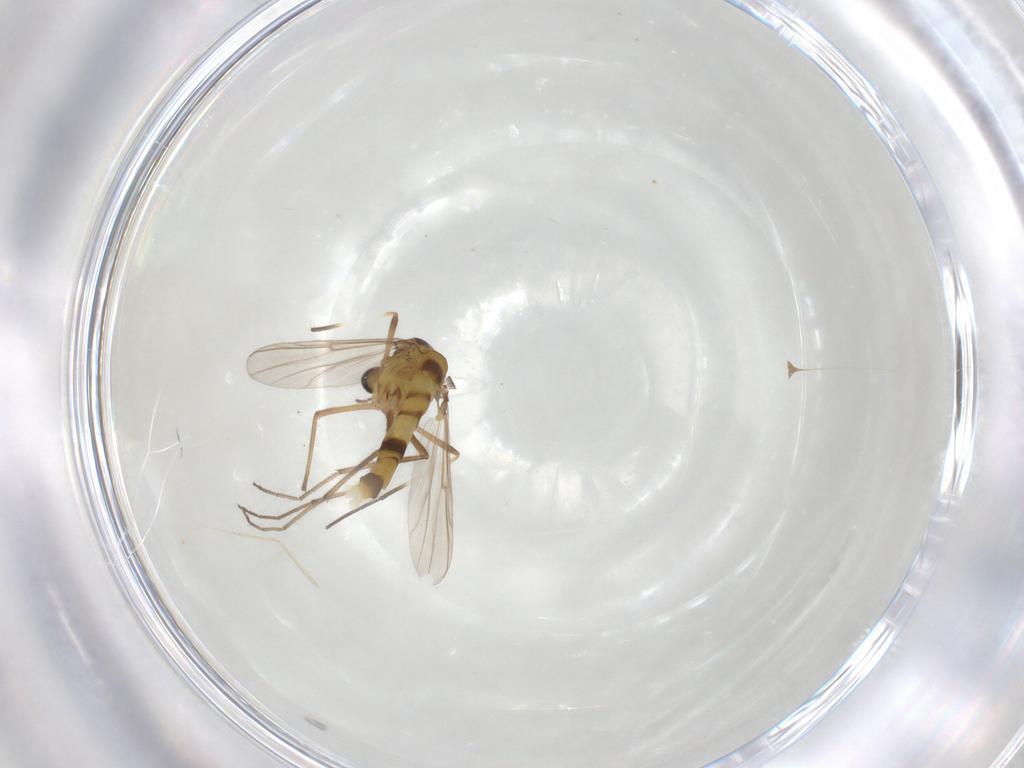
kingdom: Animalia
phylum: Arthropoda
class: Insecta
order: Diptera
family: Chironomidae
